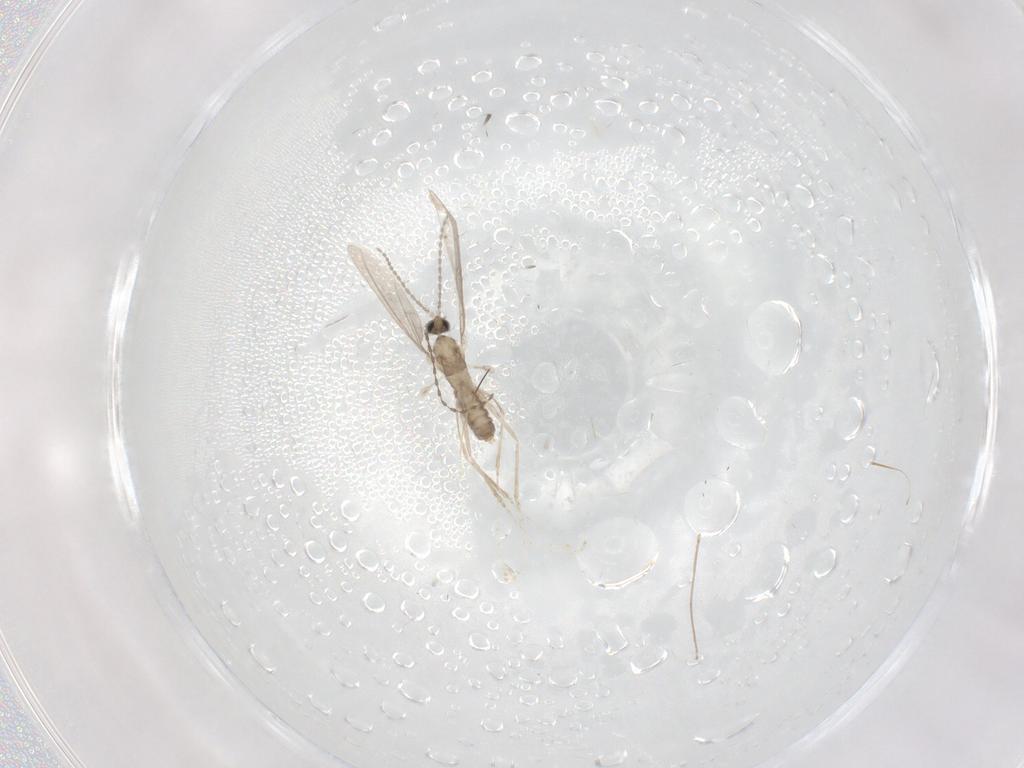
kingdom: Animalia
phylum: Arthropoda
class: Insecta
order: Diptera
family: Cecidomyiidae
